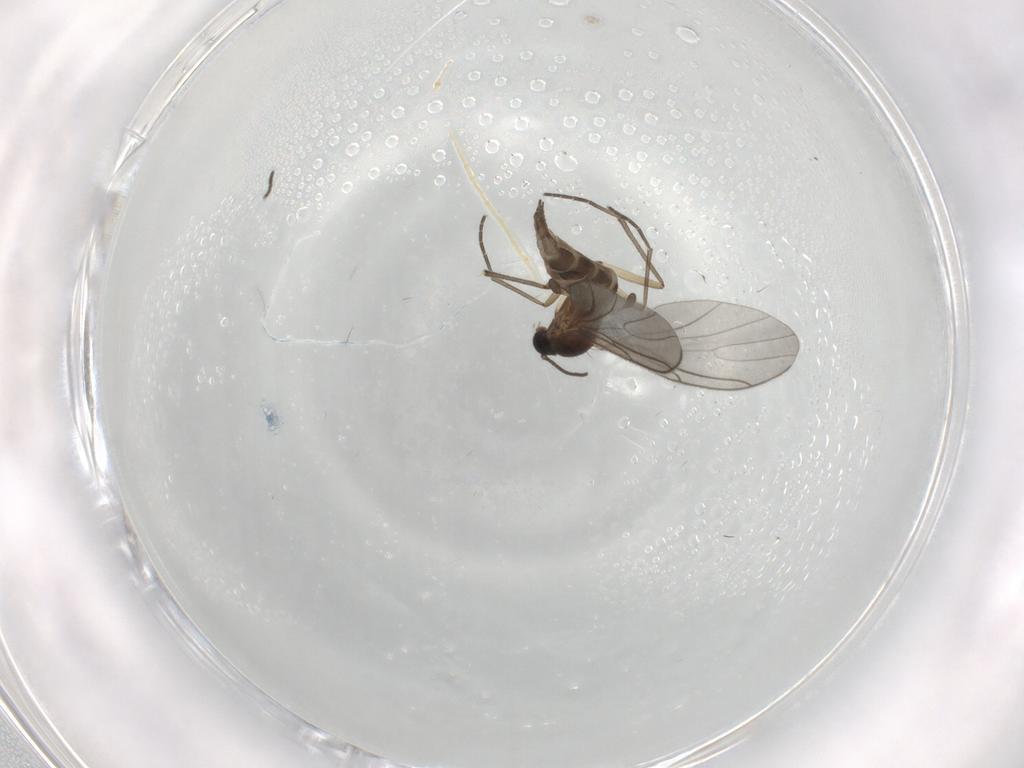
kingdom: Animalia
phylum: Arthropoda
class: Insecta
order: Diptera
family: Sciaridae
